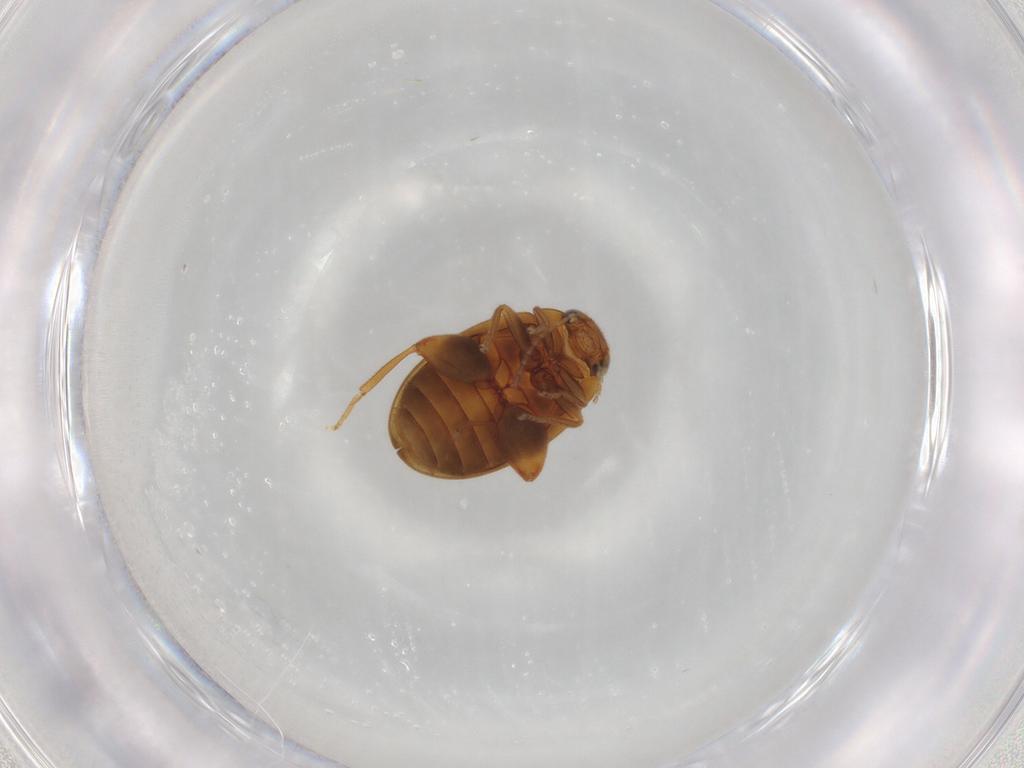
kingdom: Animalia
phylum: Arthropoda
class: Insecta
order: Coleoptera
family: Scirtidae
